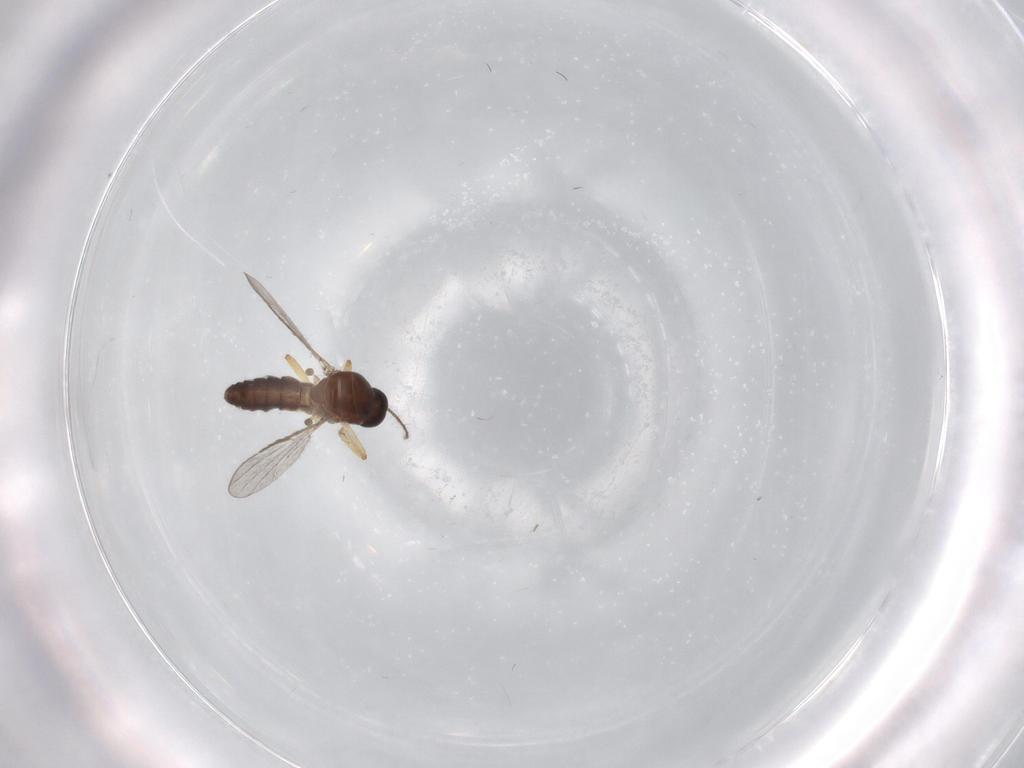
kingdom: Animalia
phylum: Arthropoda
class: Insecta
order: Diptera
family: Ceratopogonidae
